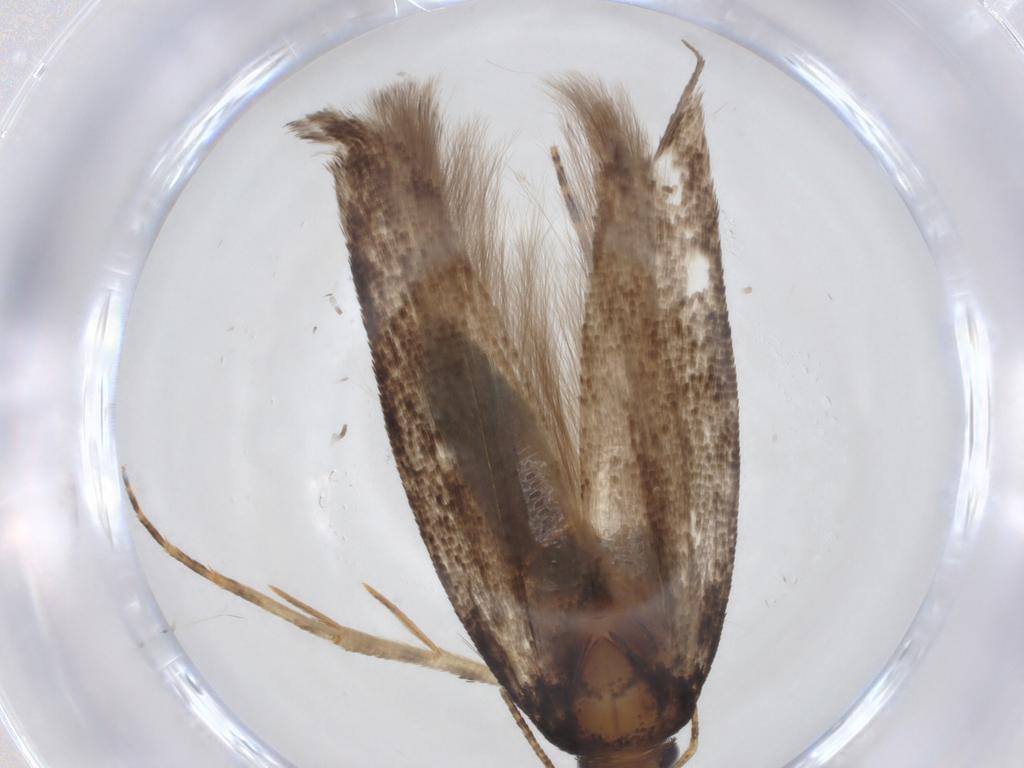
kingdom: Animalia
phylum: Arthropoda
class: Insecta
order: Lepidoptera
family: Gelechiidae
